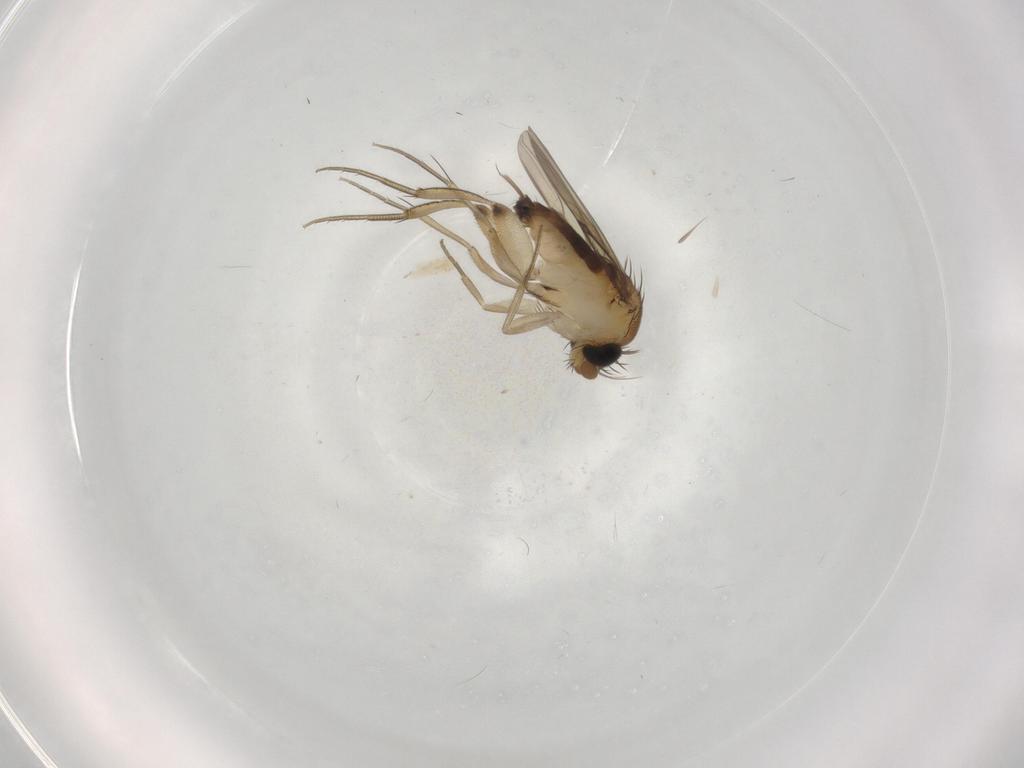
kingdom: Animalia
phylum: Arthropoda
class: Insecta
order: Diptera
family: Phoridae
